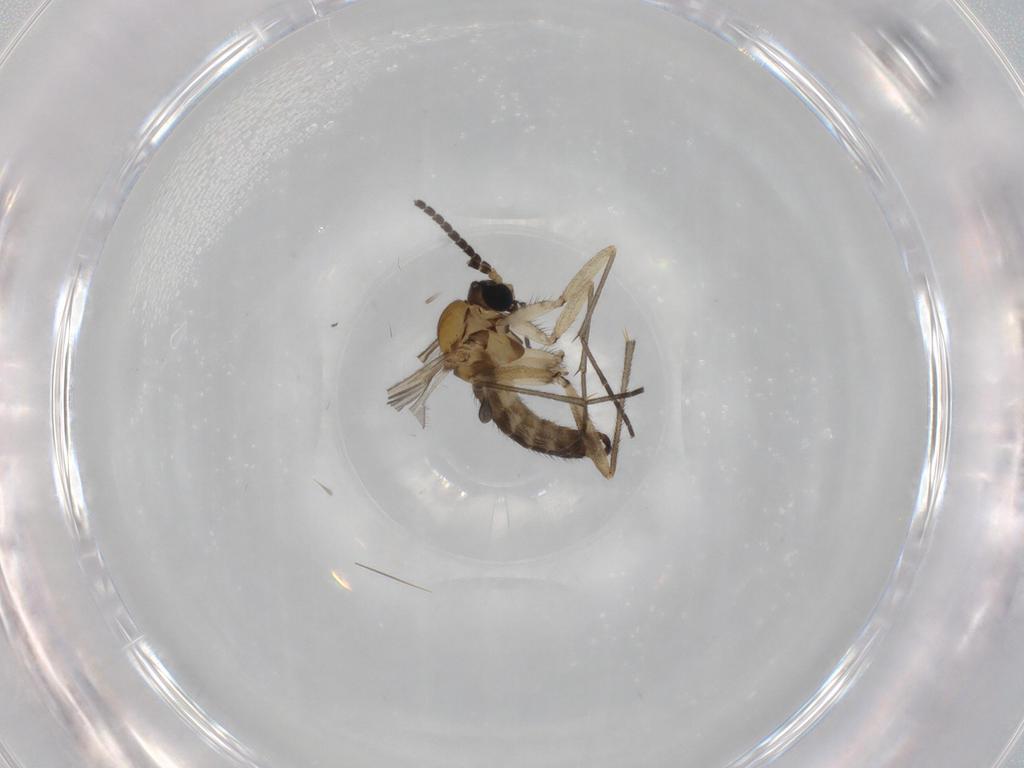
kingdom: Animalia
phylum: Arthropoda
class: Insecta
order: Diptera
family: Sciaridae
